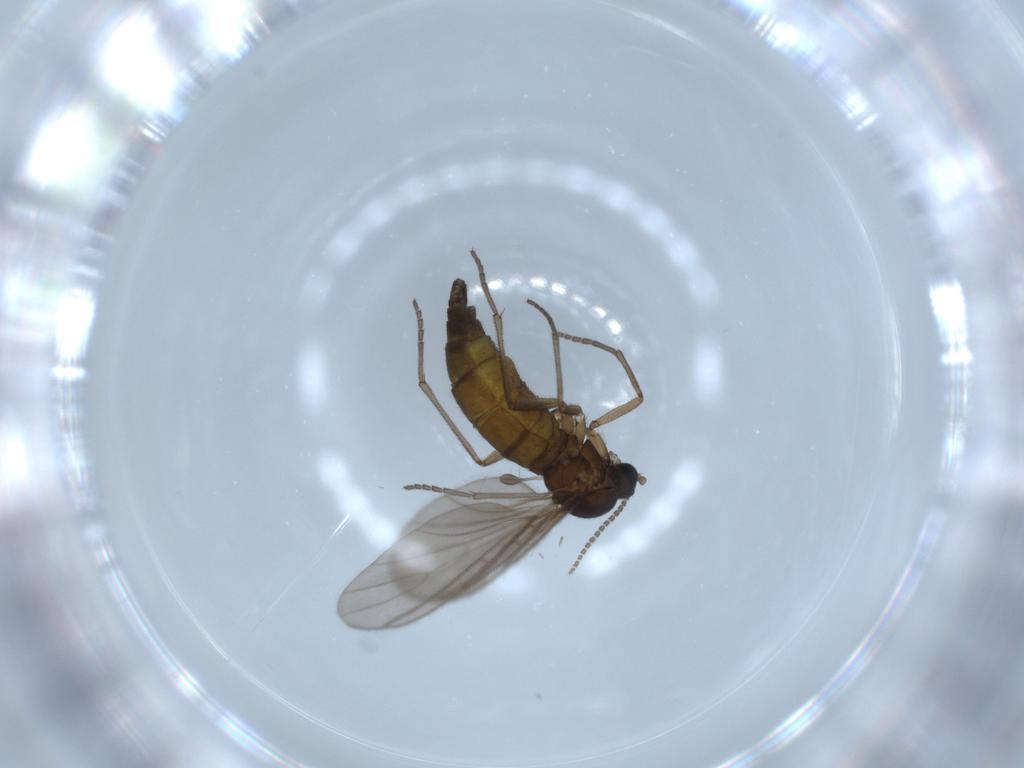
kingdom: Animalia
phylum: Arthropoda
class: Insecta
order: Diptera
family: Sciaridae
